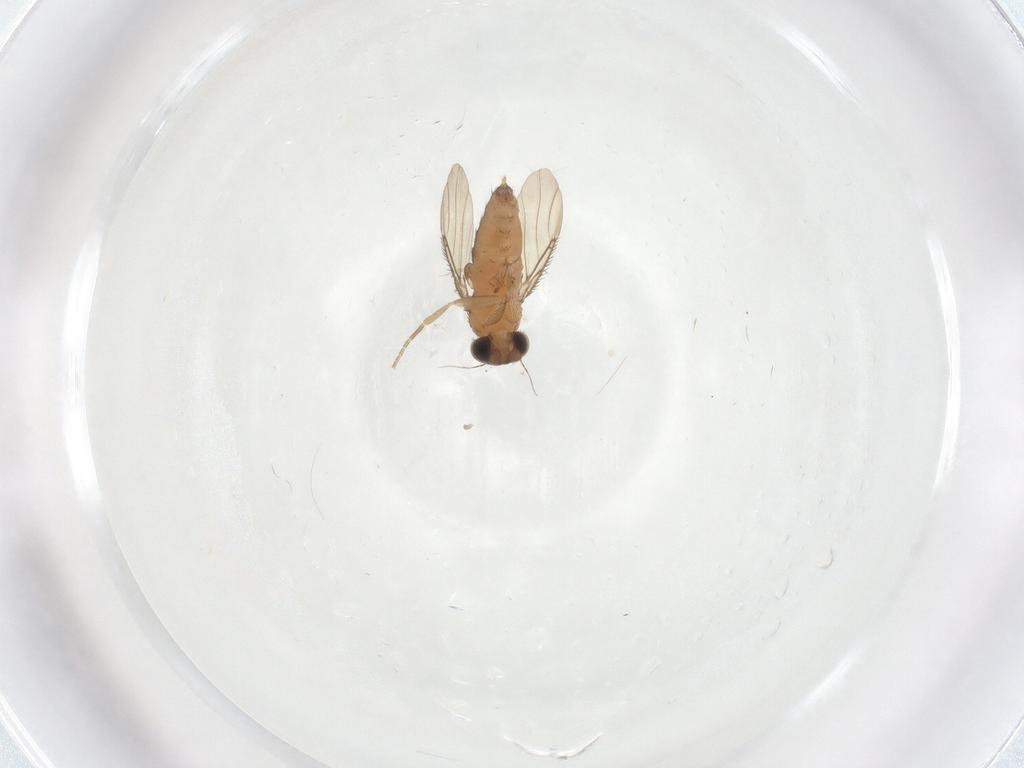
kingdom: Animalia
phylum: Arthropoda
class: Insecta
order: Diptera
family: Phoridae
